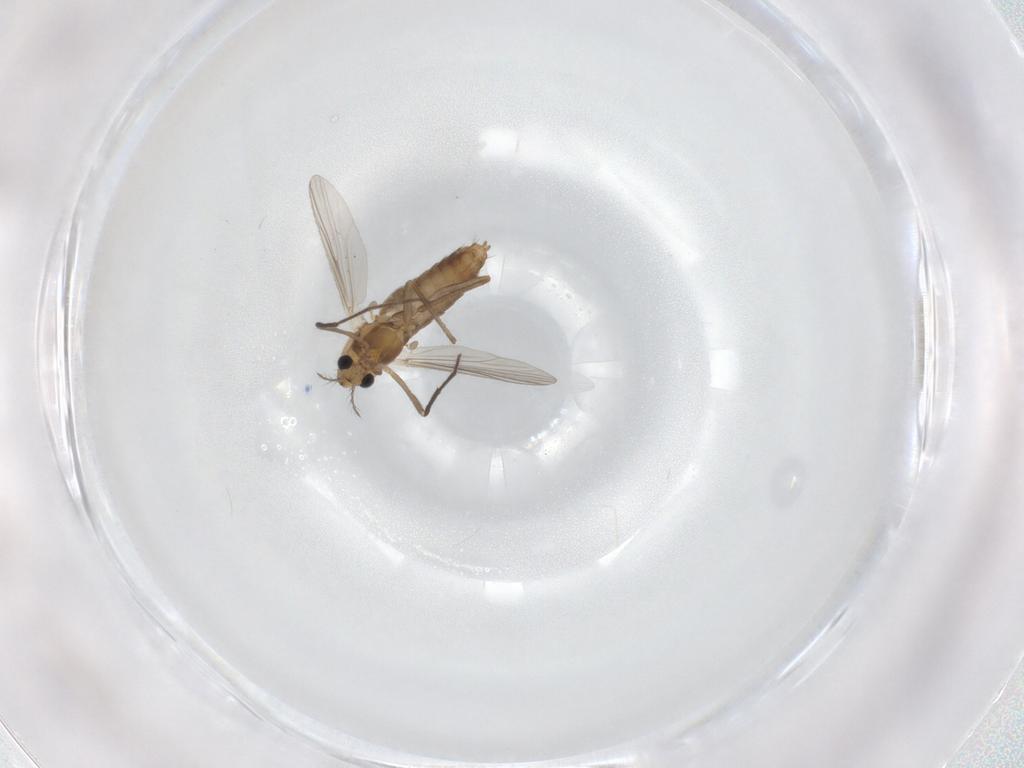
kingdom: Animalia
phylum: Arthropoda
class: Insecta
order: Diptera
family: Chironomidae
